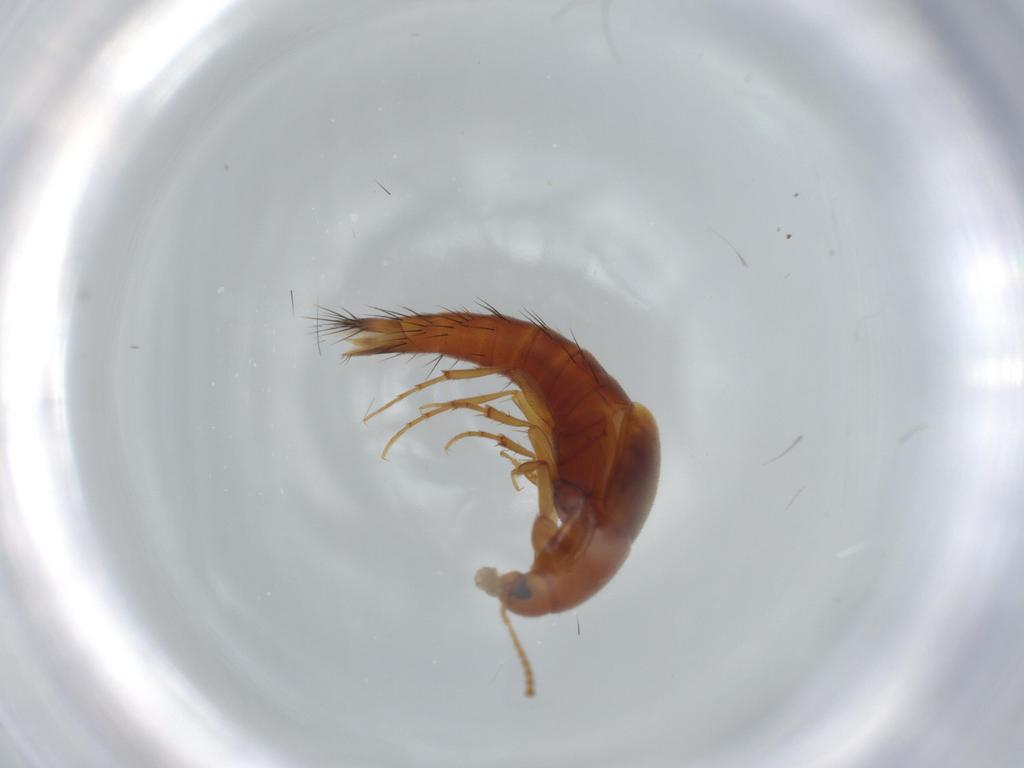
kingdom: Animalia
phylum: Arthropoda
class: Insecta
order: Coleoptera
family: Staphylinidae
